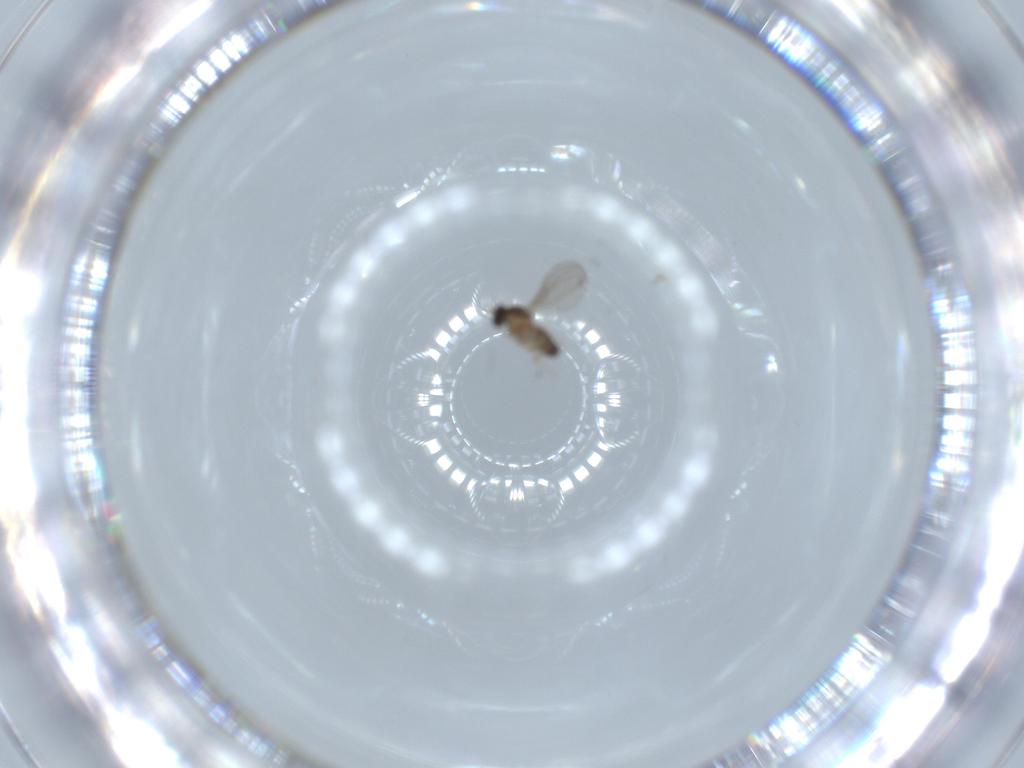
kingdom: Animalia
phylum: Arthropoda
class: Insecta
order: Diptera
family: Cecidomyiidae
